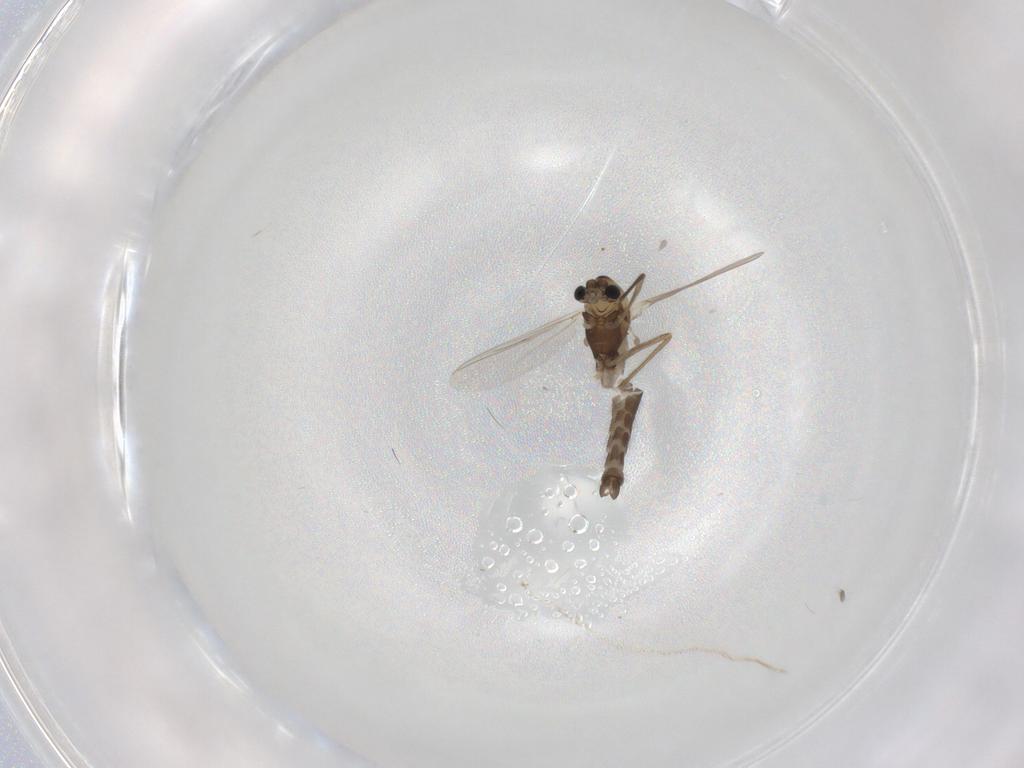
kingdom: Animalia
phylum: Arthropoda
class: Insecta
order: Diptera
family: Chironomidae
